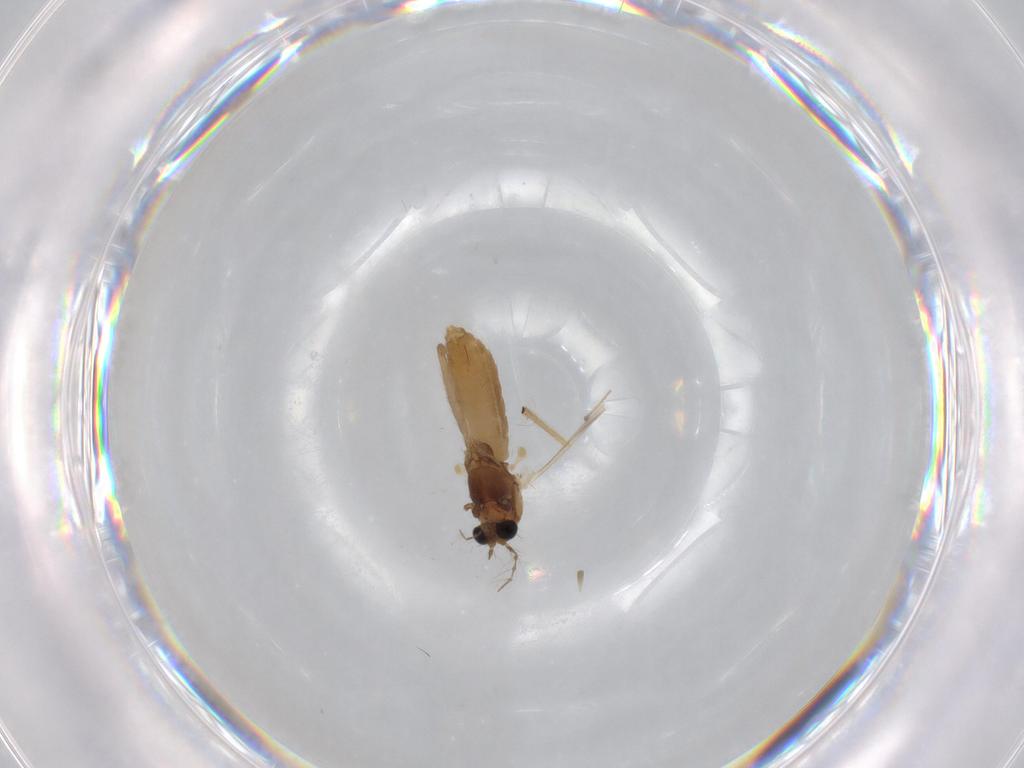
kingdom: Animalia
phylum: Arthropoda
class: Insecta
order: Diptera
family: Chironomidae
